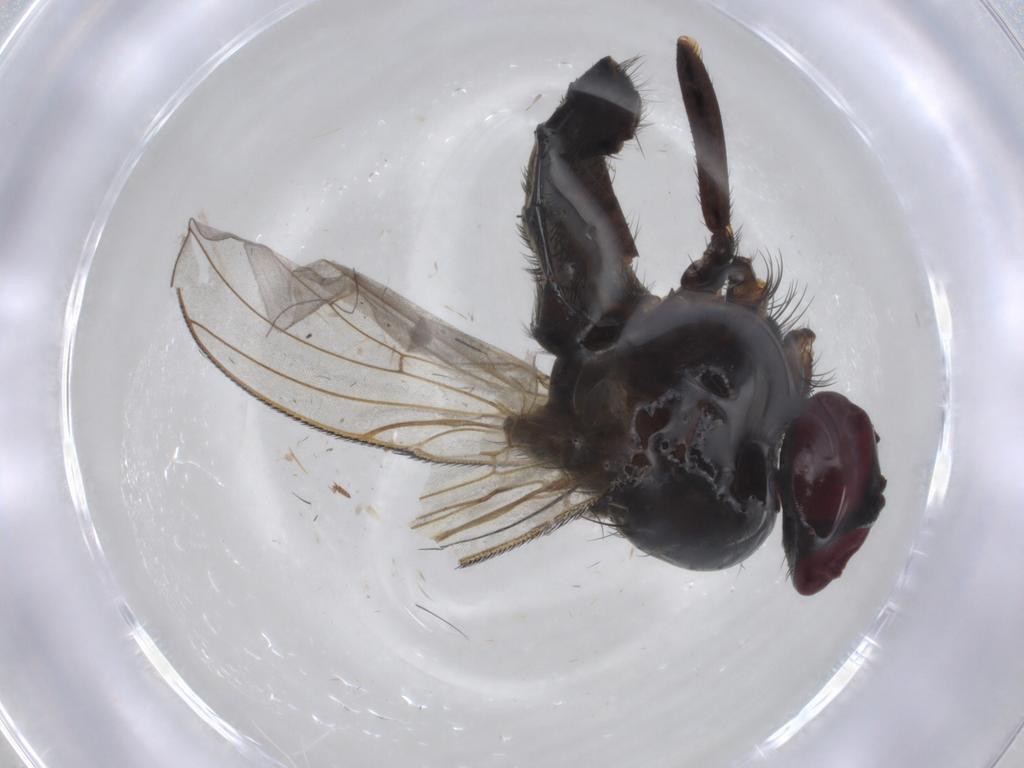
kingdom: Animalia
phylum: Arthropoda
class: Insecta
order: Diptera
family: Muscidae
